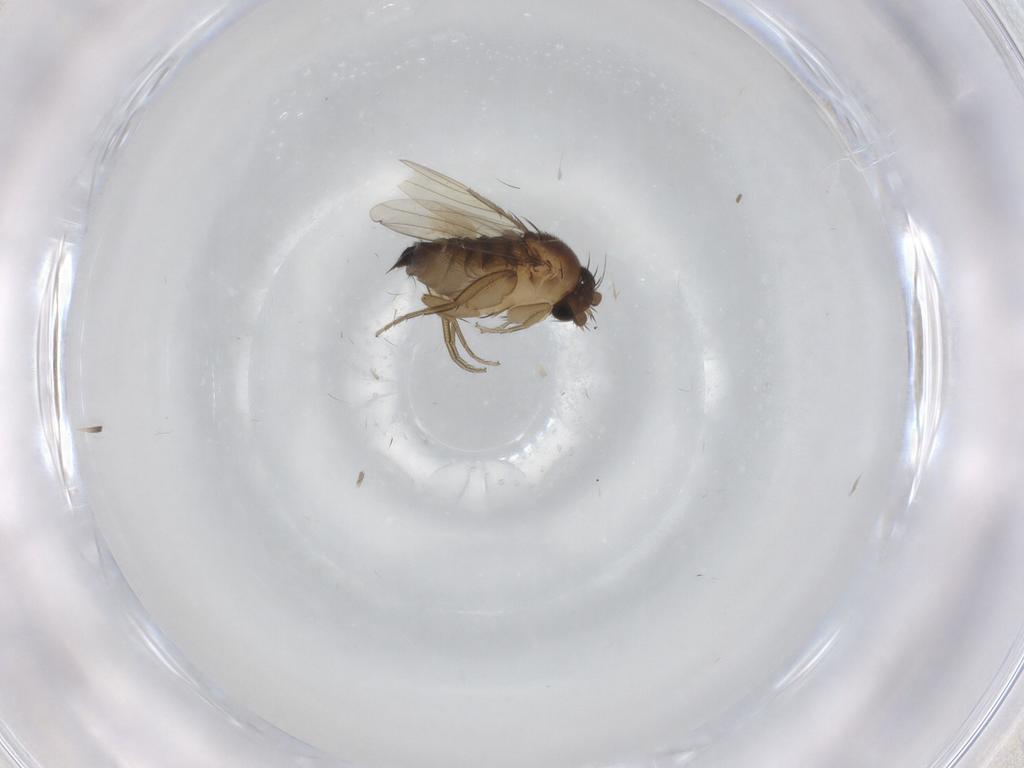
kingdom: Animalia
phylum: Arthropoda
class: Insecta
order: Diptera
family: Phoridae
